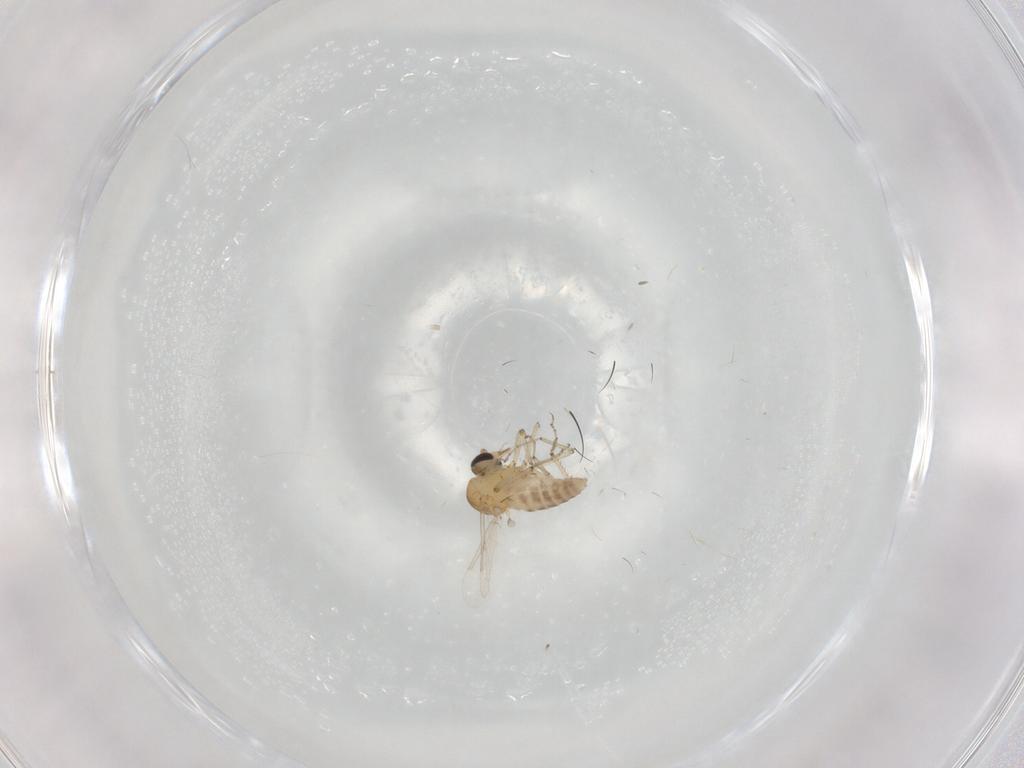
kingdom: Animalia
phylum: Arthropoda
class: Insecta
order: Diptera
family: Ceratopogonidae
